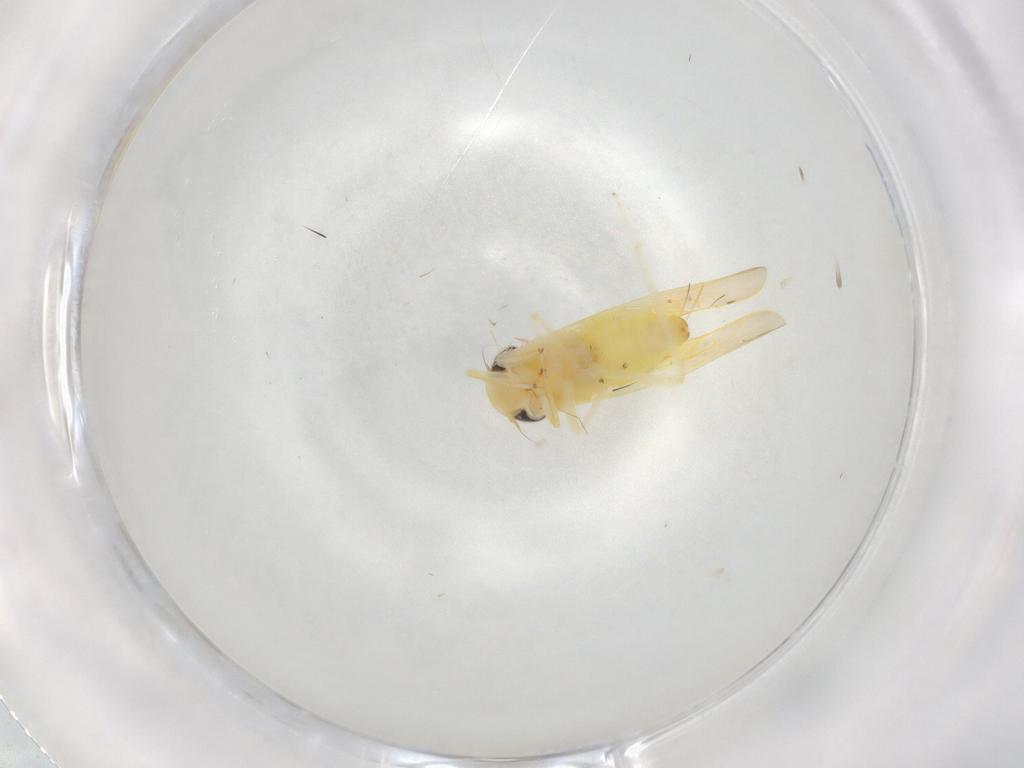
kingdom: Animalia
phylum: Arthropoda
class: Insecta
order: Hemiptera
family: Cicadellidae
